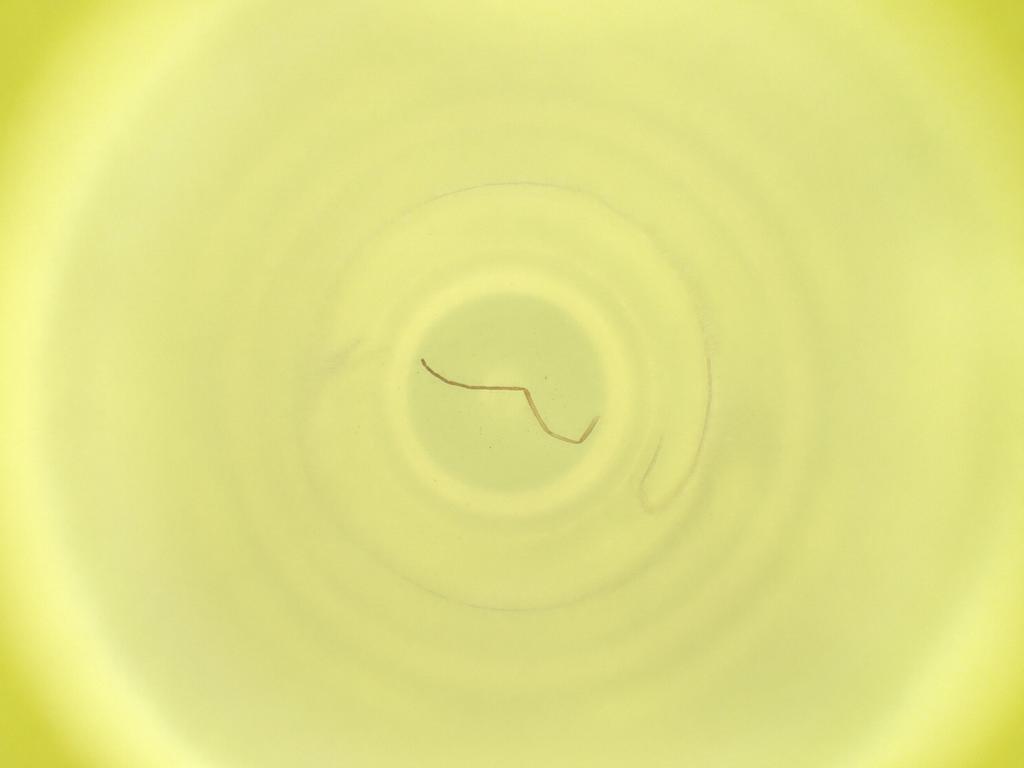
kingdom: Animalia
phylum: Arthropoda
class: Insecta
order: Diptera
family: Cecidomyiidae
